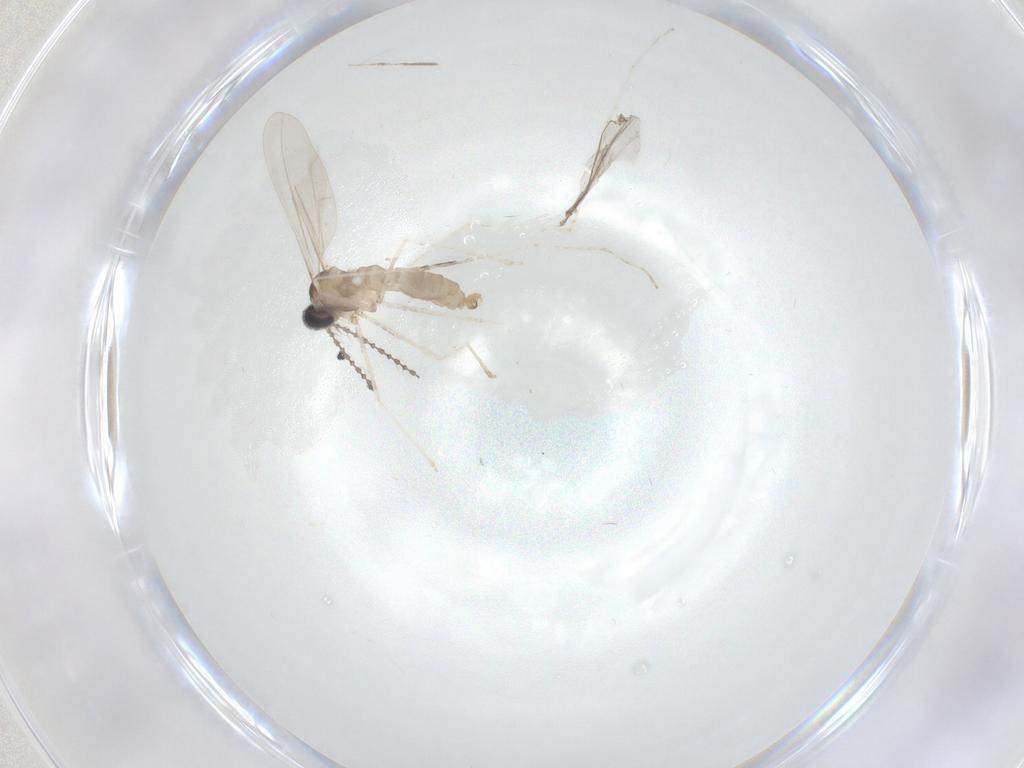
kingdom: Animalia
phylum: Arthropoda
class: Insecta
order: Diptera
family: Cecidomyiidae
